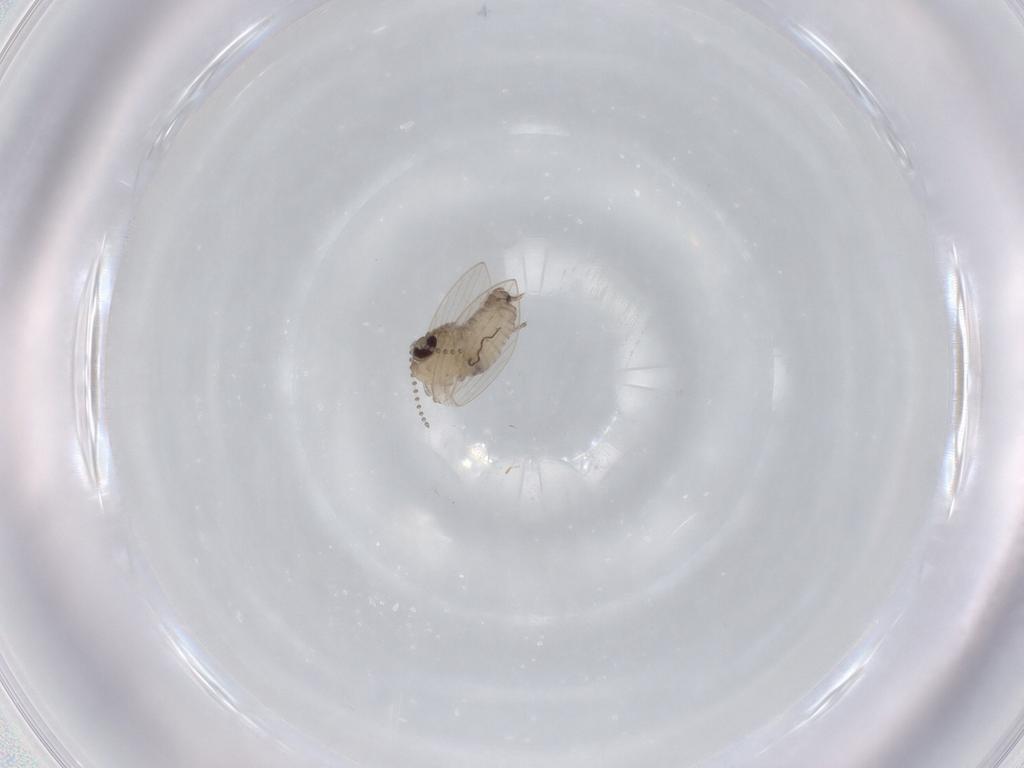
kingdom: Animalia
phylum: Arthropoda
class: Insecta
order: Diptera
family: Psychodidae
